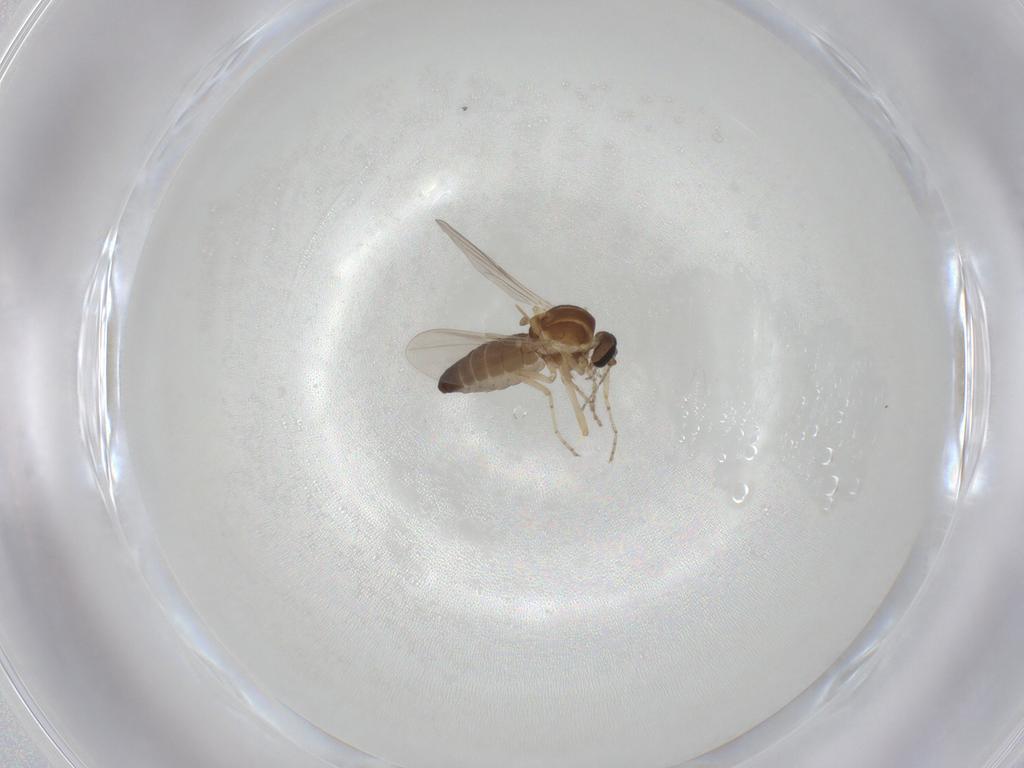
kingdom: Animalia
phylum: Arthropoda
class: Insecta
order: Diptera
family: Ceratopogonidae
